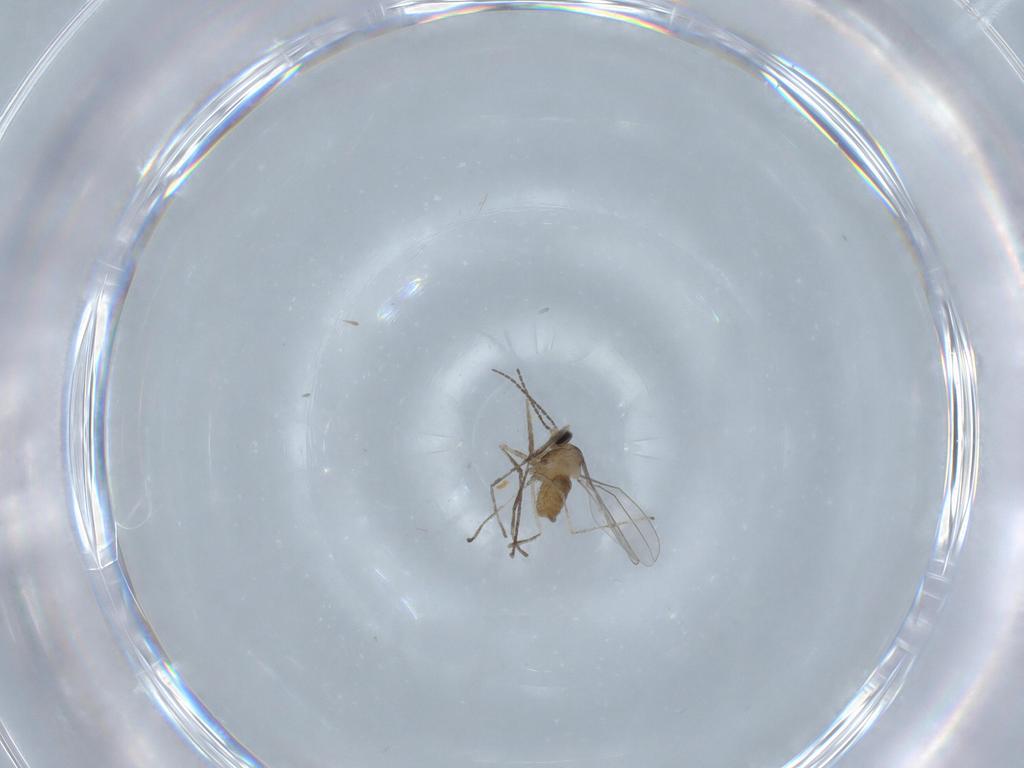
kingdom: Animalia
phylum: Arthropoda
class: Insecta
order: Diptera
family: Cecidomyiidae
